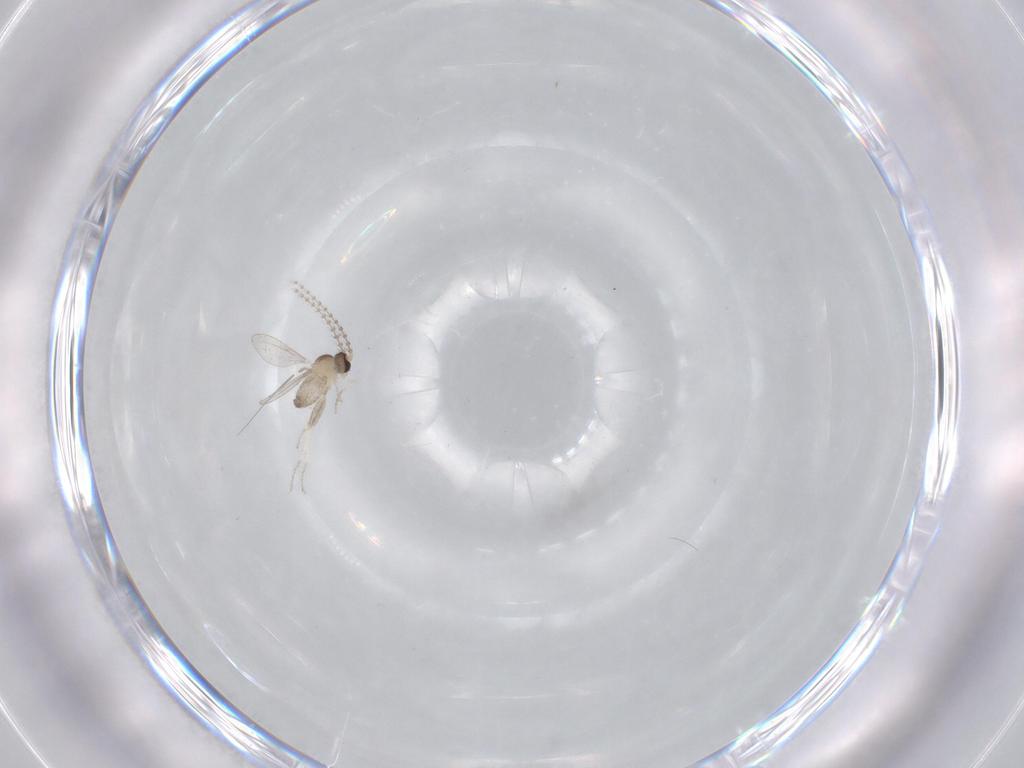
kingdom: Animalia
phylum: Arthropoda
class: Insecta
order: Diptera
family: Cecidomyiidae
